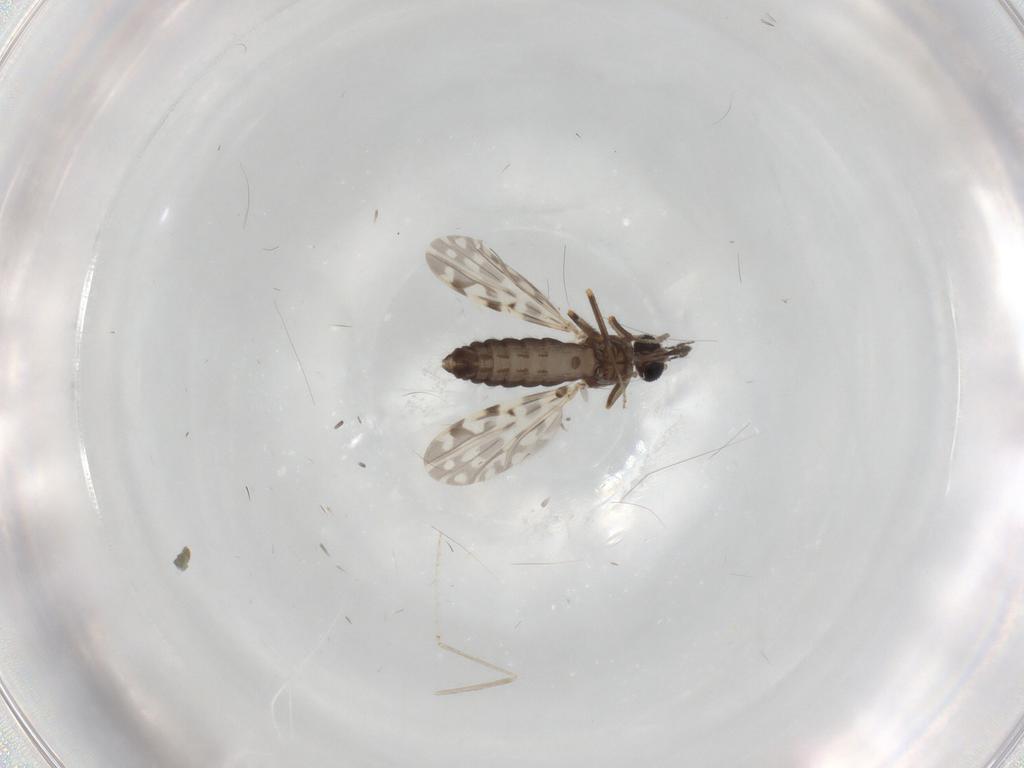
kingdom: Animalia
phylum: Arthropoda
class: Insecta
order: Diptera
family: Ceratopogonidae
